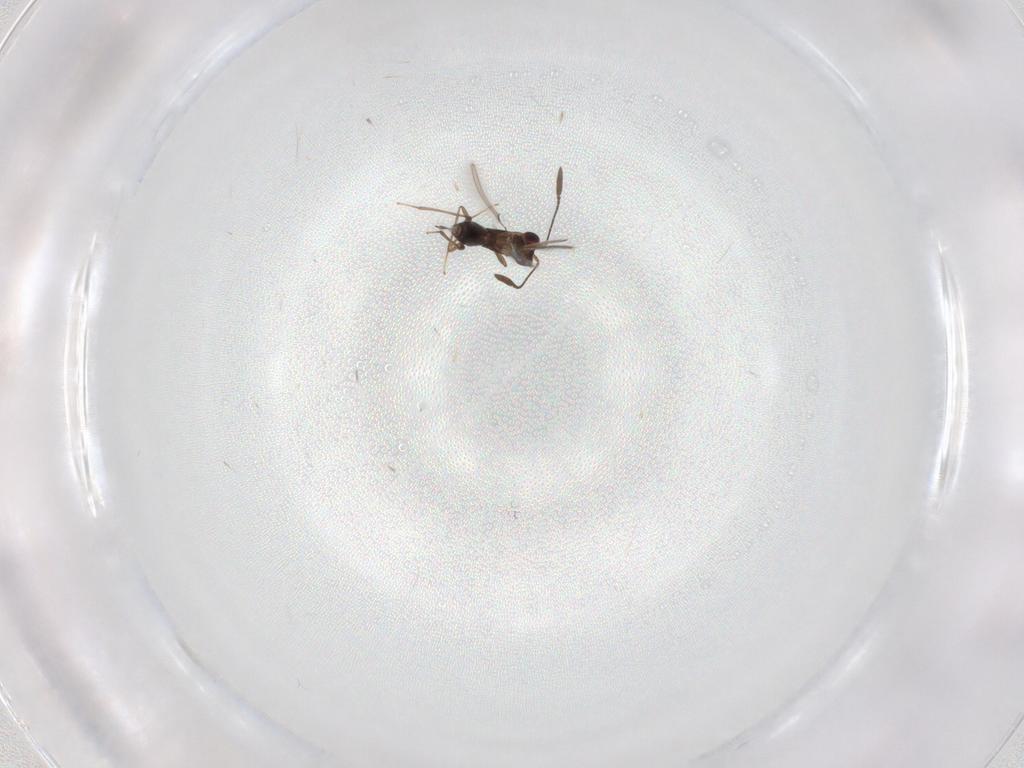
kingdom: Animalia
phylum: Arthropoda
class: Insecta
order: Hymenoptera
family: Mymaridae
